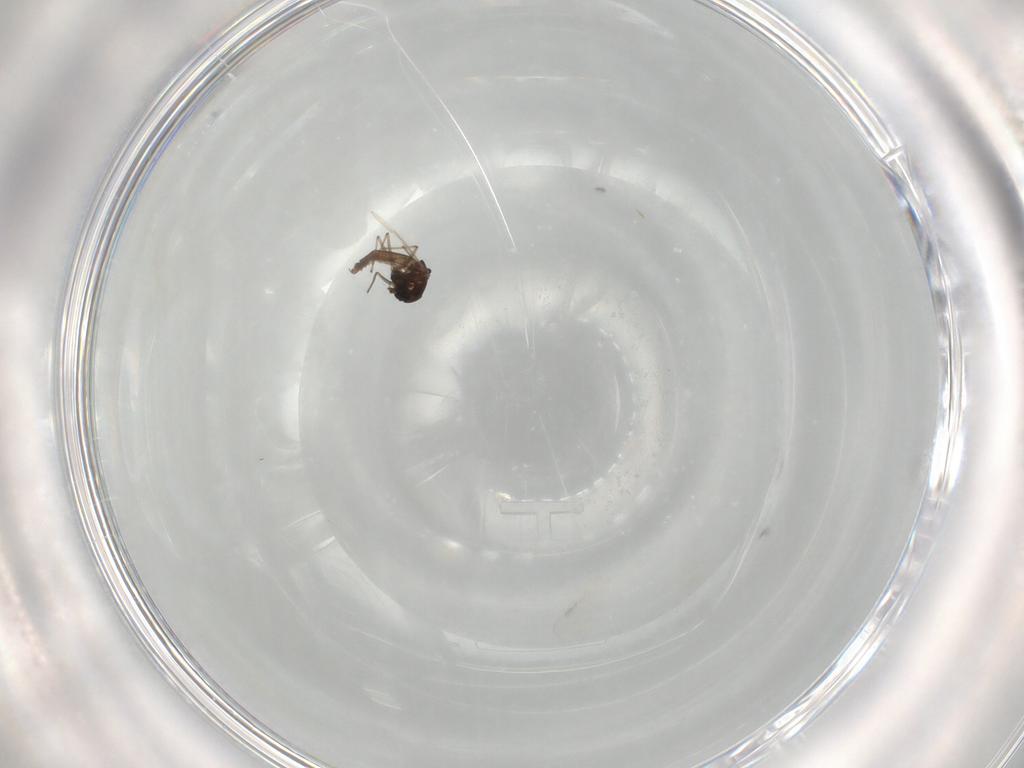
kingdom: Animalia
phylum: Arthropoda
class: Insecta
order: Diptera
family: Chironomidae
